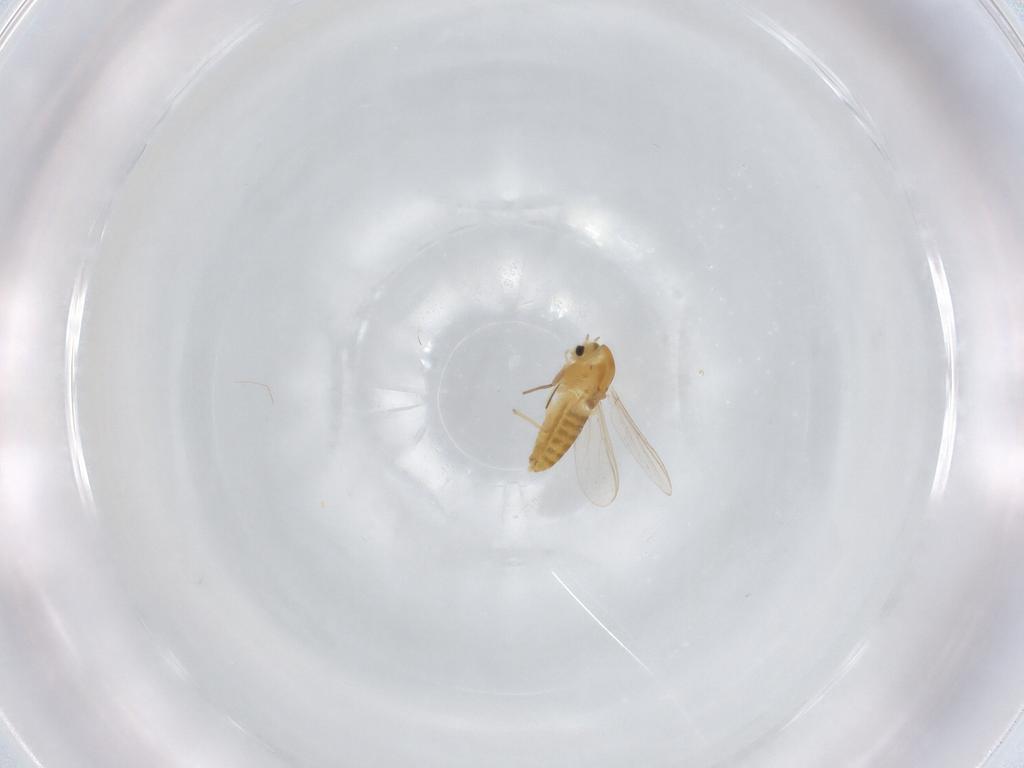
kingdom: Animalia
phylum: Arthropoda
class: Insecta
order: Diptera
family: Chironomidae
